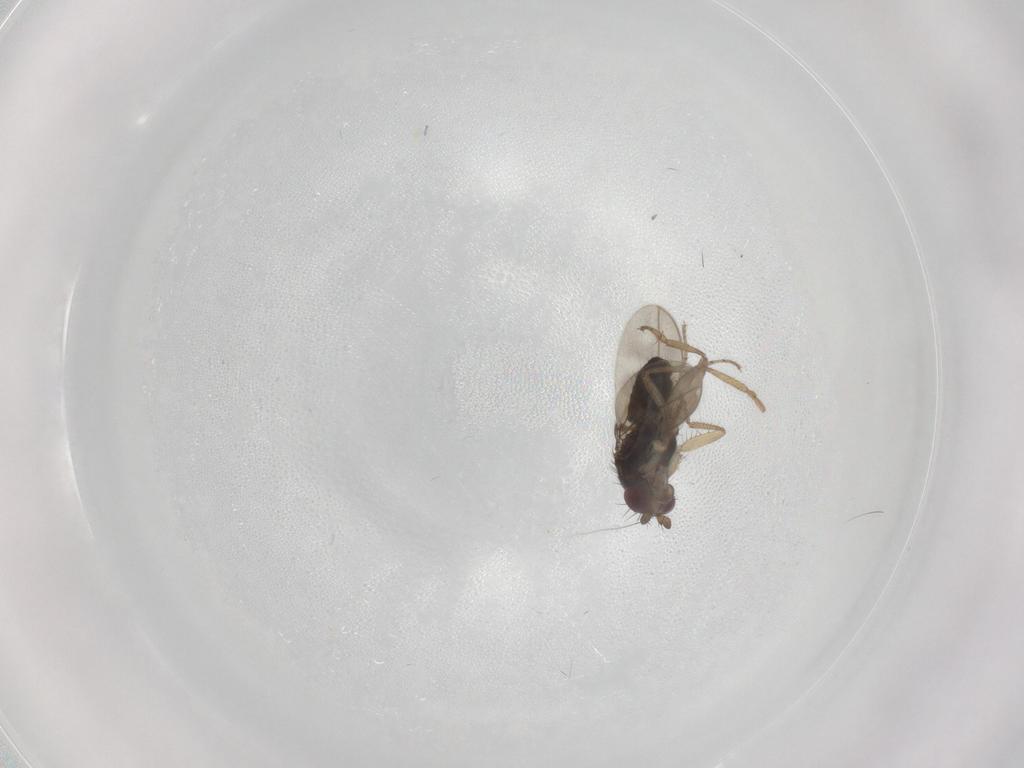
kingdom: Animalia
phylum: Arthropoda
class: Insecta
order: Diptera
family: Sphaeroceridae
